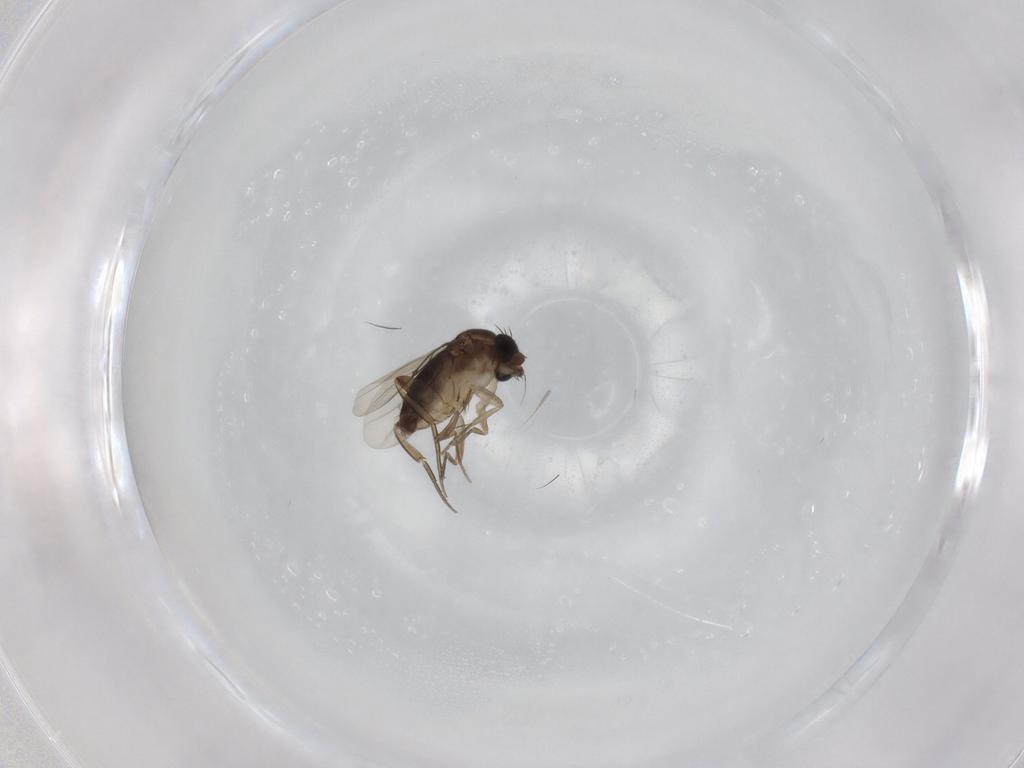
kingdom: Animalia
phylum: Arthropoda
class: Insecta
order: Diptera
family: Phoridae
